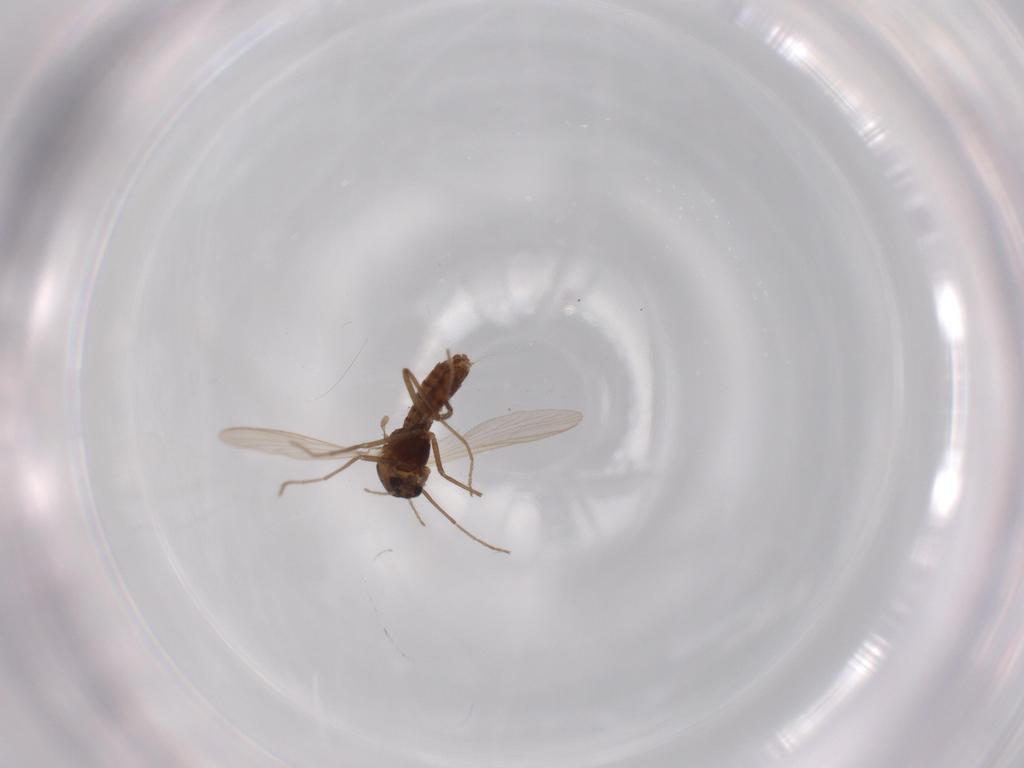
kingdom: Animalia
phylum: Arthropoda
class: Insecta
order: Diptera
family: Chironomidae
